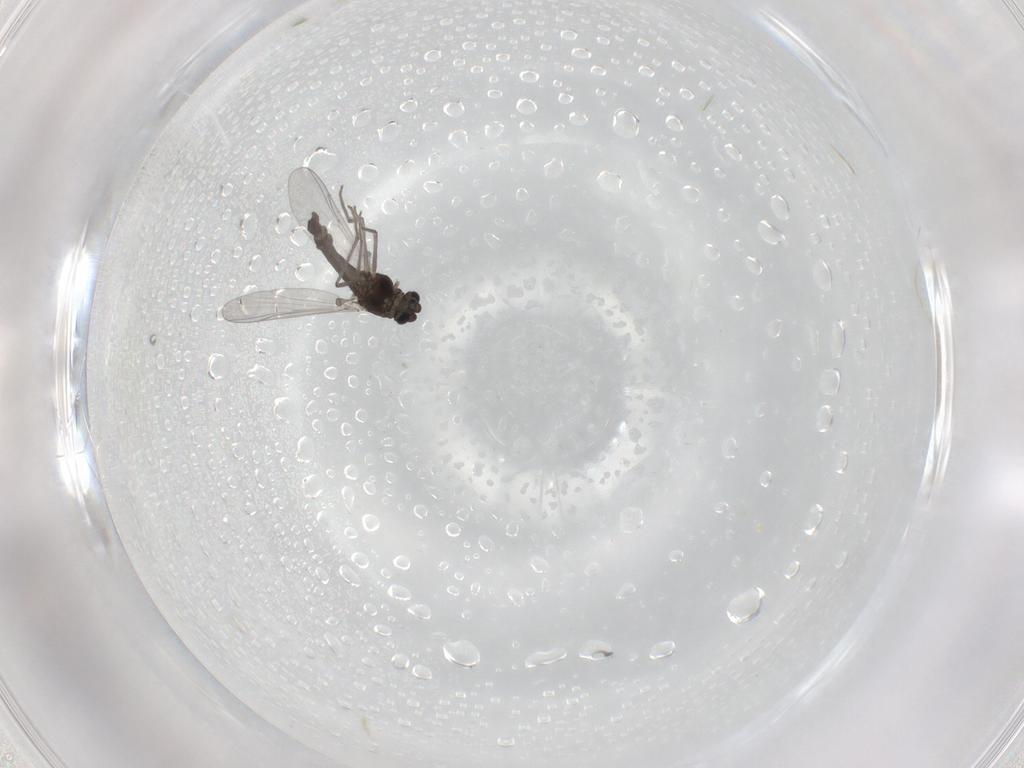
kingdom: Animalia
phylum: Arthropoda
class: Insecta
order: Diptera
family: Chironomidae
